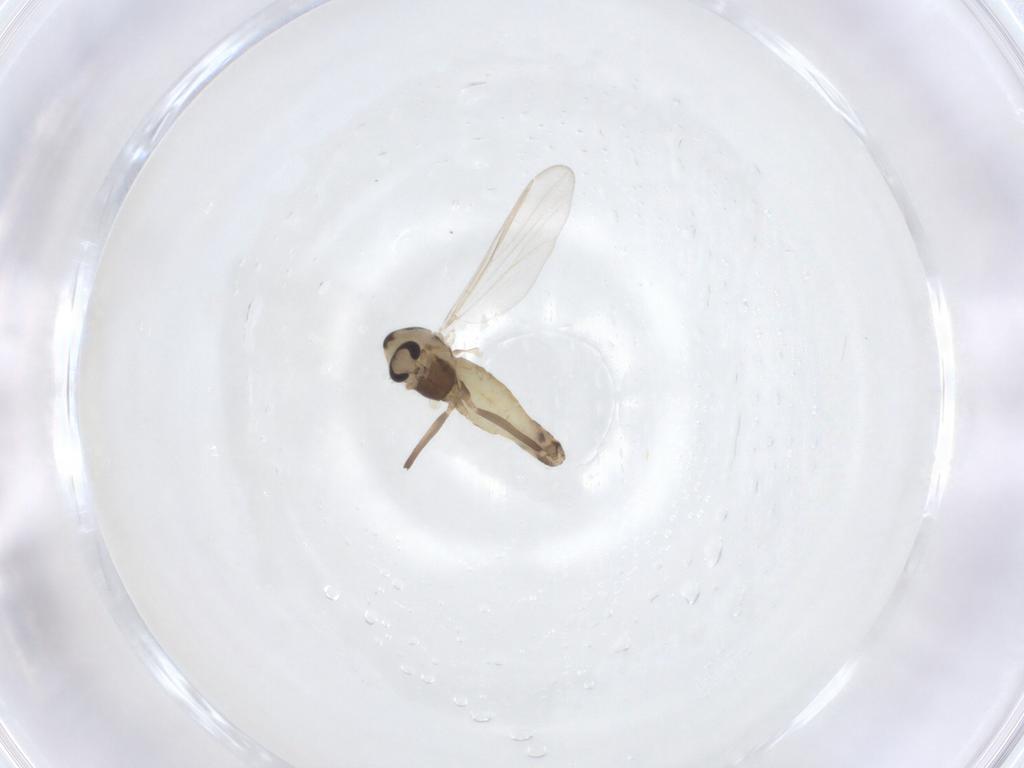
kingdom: Animalia
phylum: Arthropoda
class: Insecta
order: Diptera
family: Chironomidae
